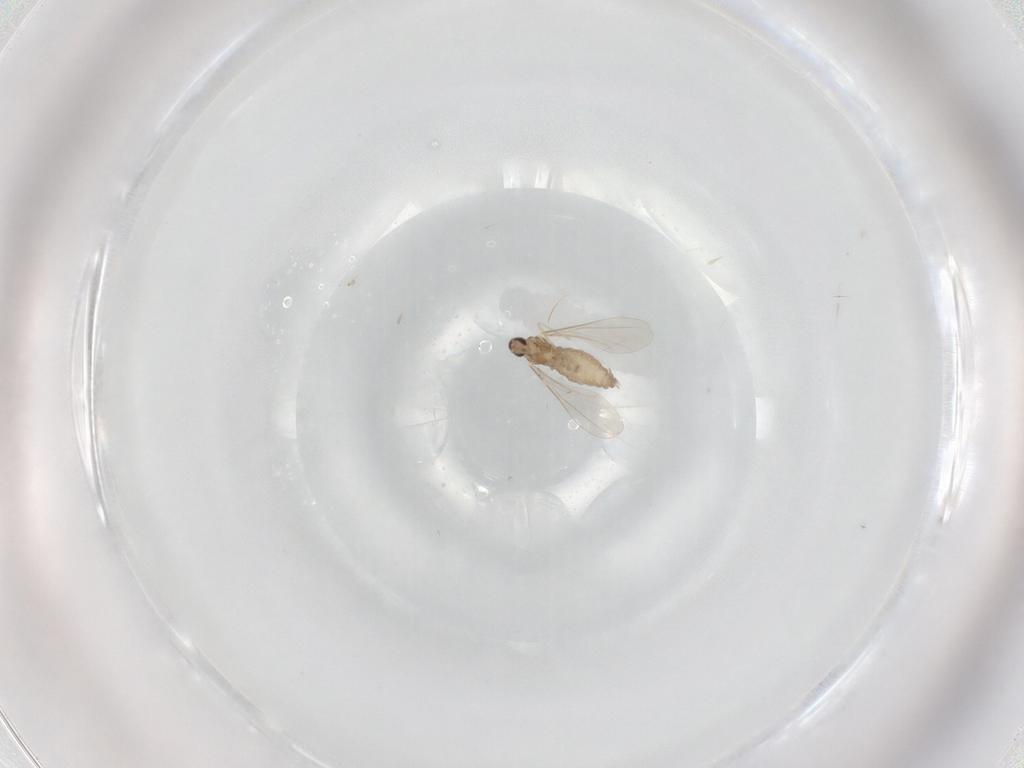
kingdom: Animalia
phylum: Arthropoda
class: Insecta
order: Diptera
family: Cecidomyiidae
